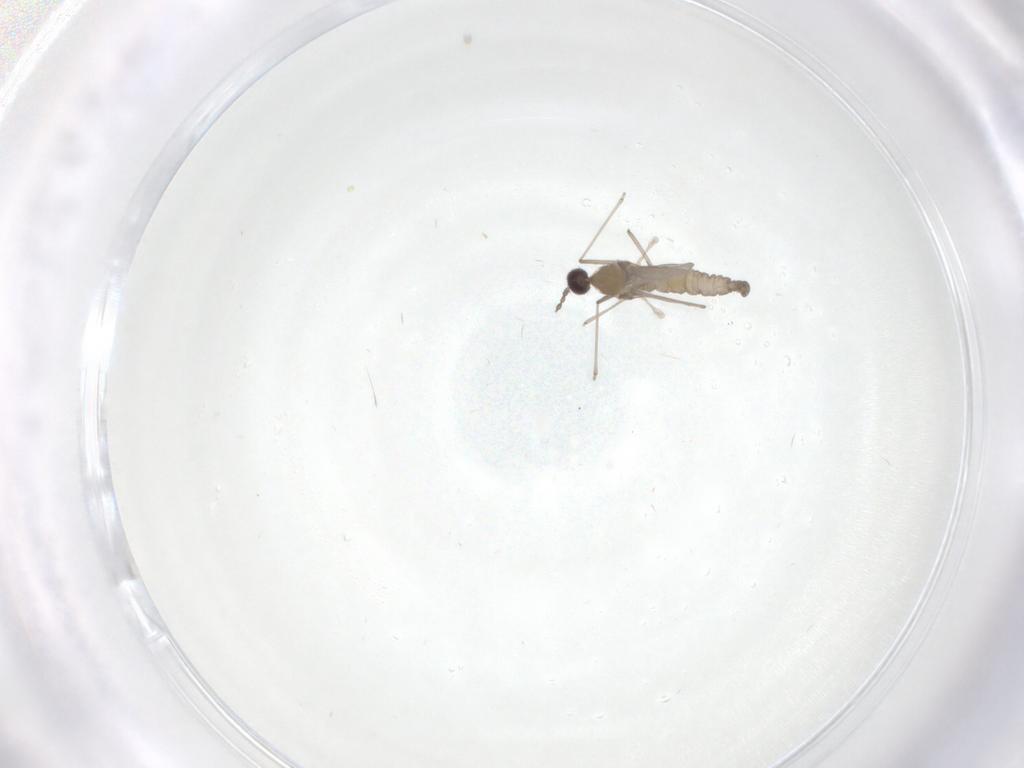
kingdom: Animalia
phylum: Arthropoda
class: Insecta
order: Diptera
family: Cecidomyiidae
